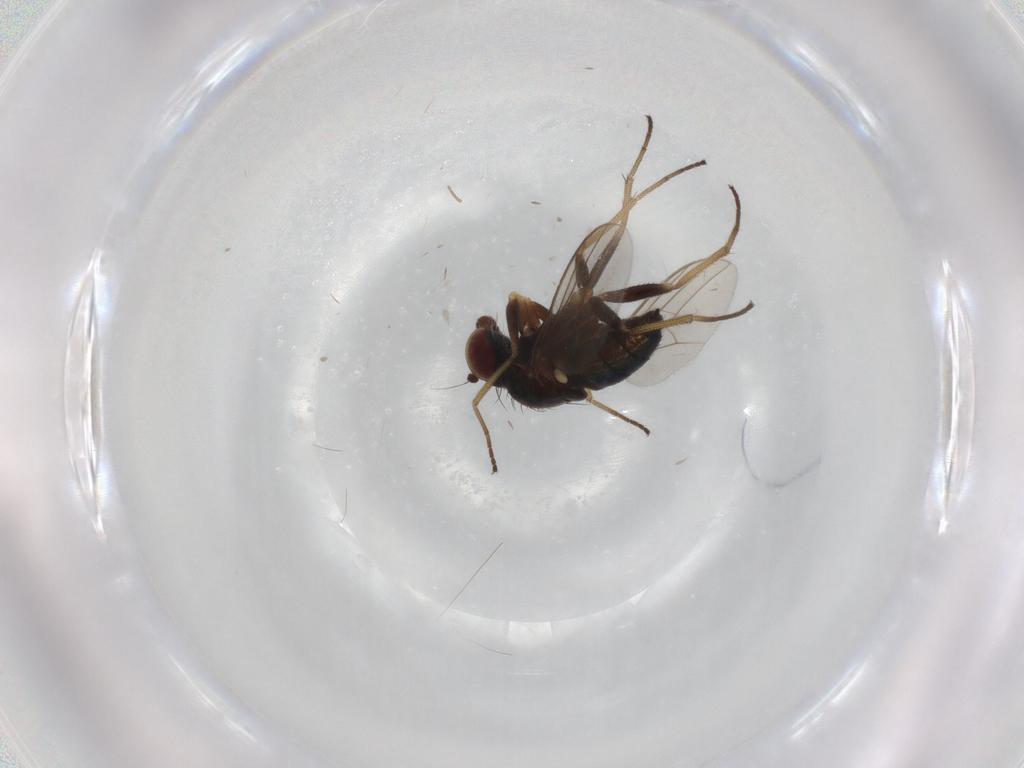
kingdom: Animalia
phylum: Arthropoda
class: Insecta
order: Diptera
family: Dolichopodidae
